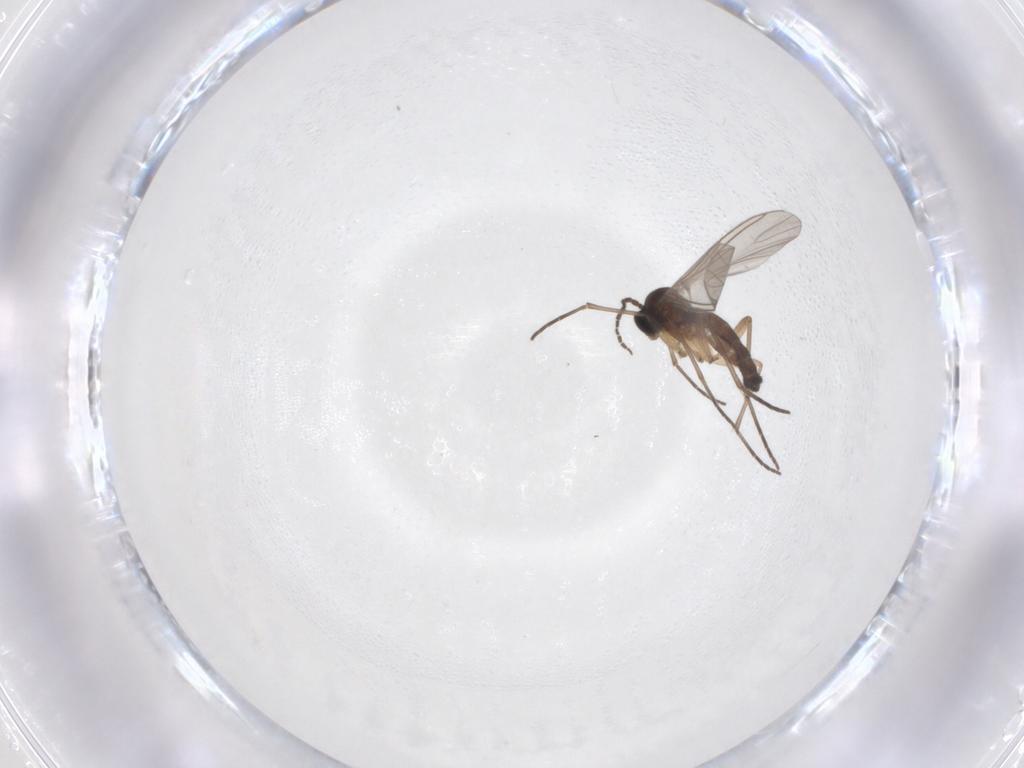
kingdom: Animalia
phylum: Arthropoda
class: Insecta
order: Diptera
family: Sciaridae
